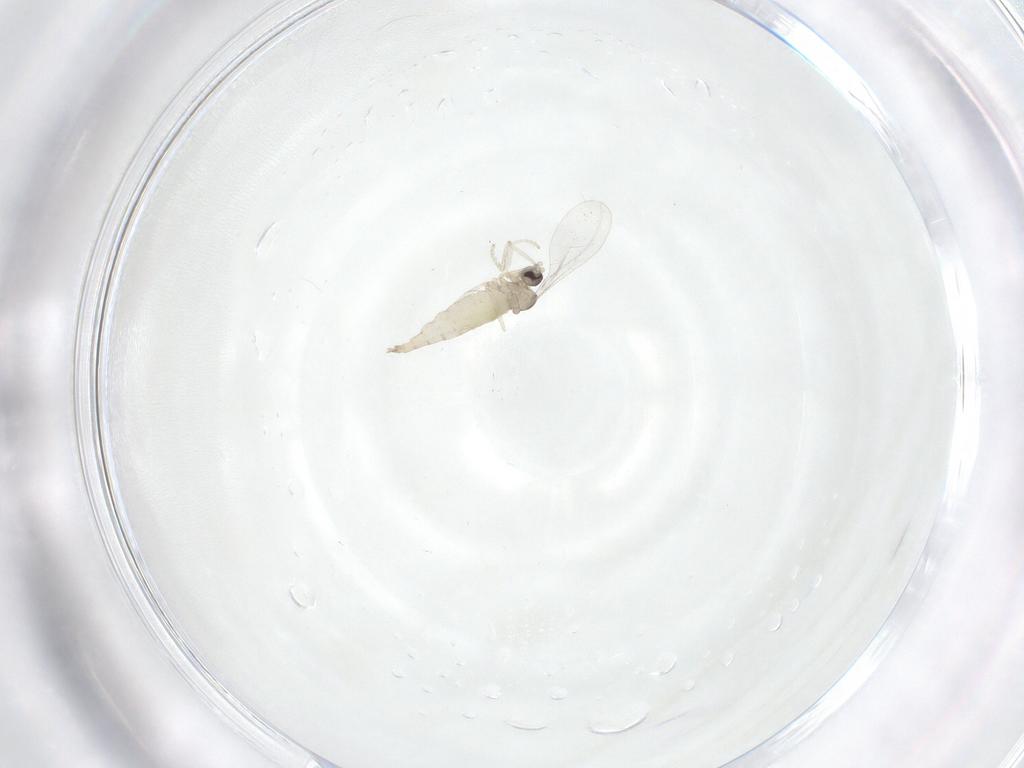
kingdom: Animalia
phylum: Arthropoda
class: Insecta
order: Diptera
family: Cecidomyiidae
